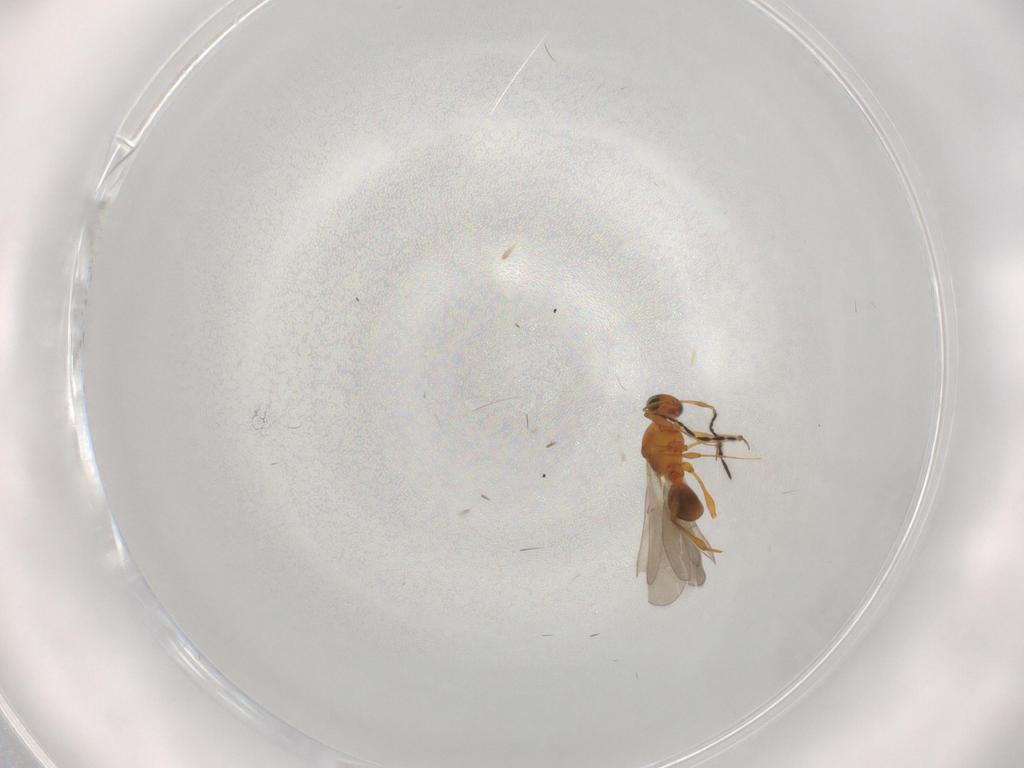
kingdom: Animalia
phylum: Arthropoda
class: Insecta
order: Hymenoptera
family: Platygastridae
